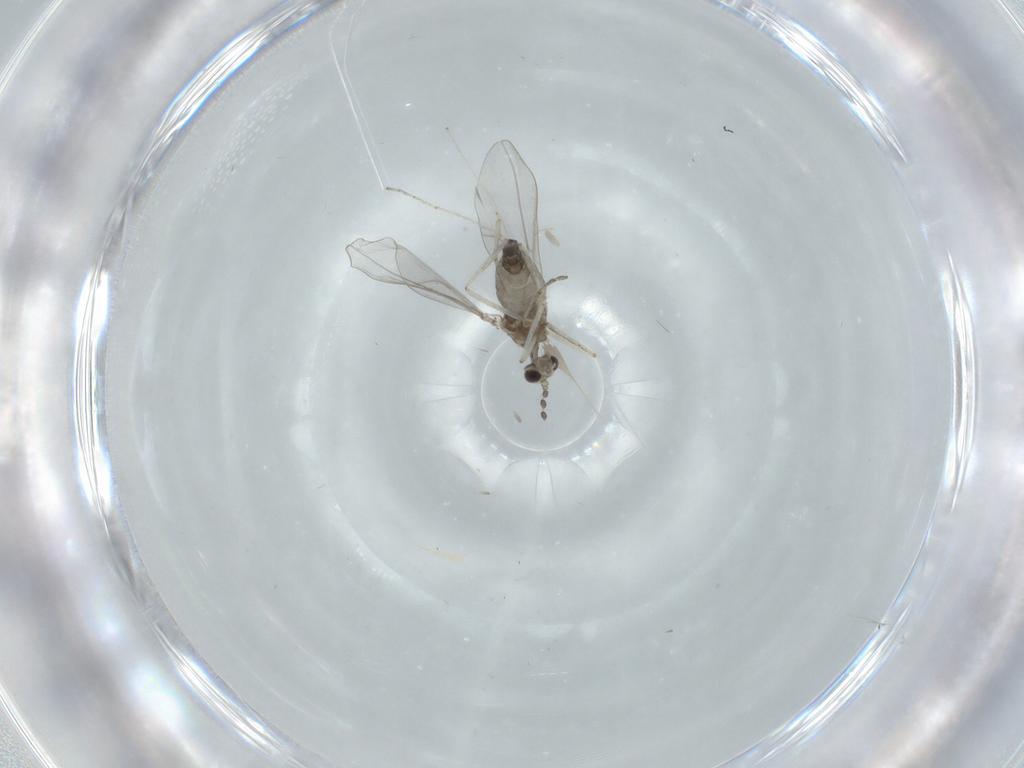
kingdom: Animalia
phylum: Arthropoda
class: Insecta
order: Diptera
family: Cecidomyiidae
